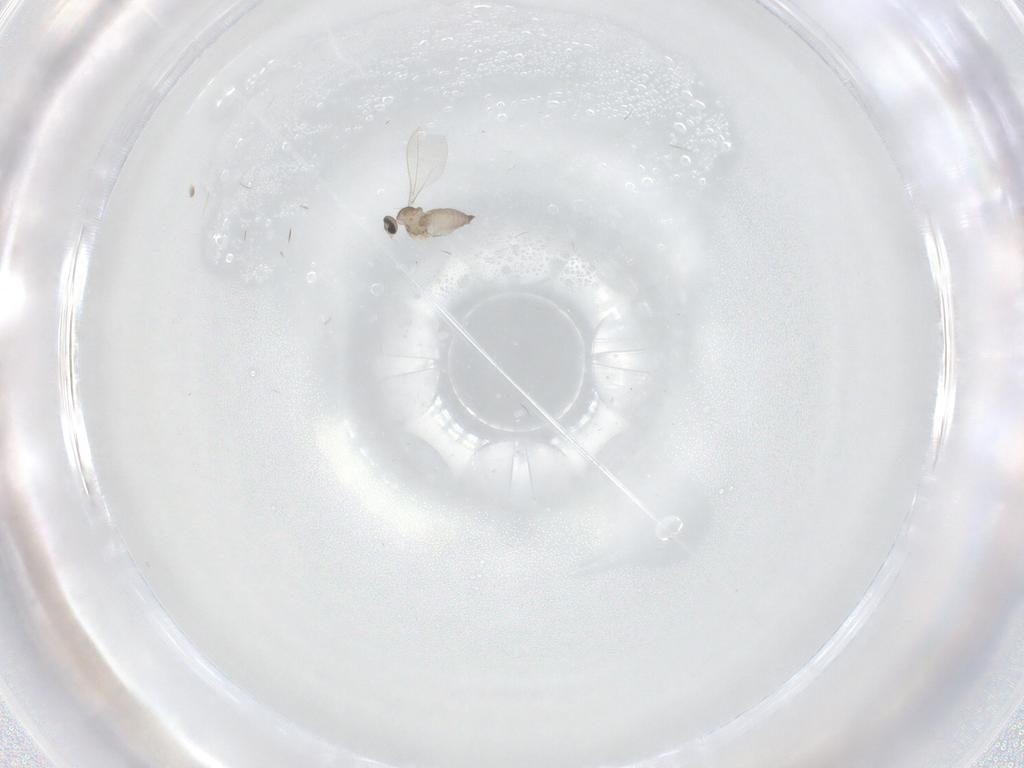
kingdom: Animalia
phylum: Arthropoda
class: Insecta
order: Diptera
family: Cecidomyiidae
